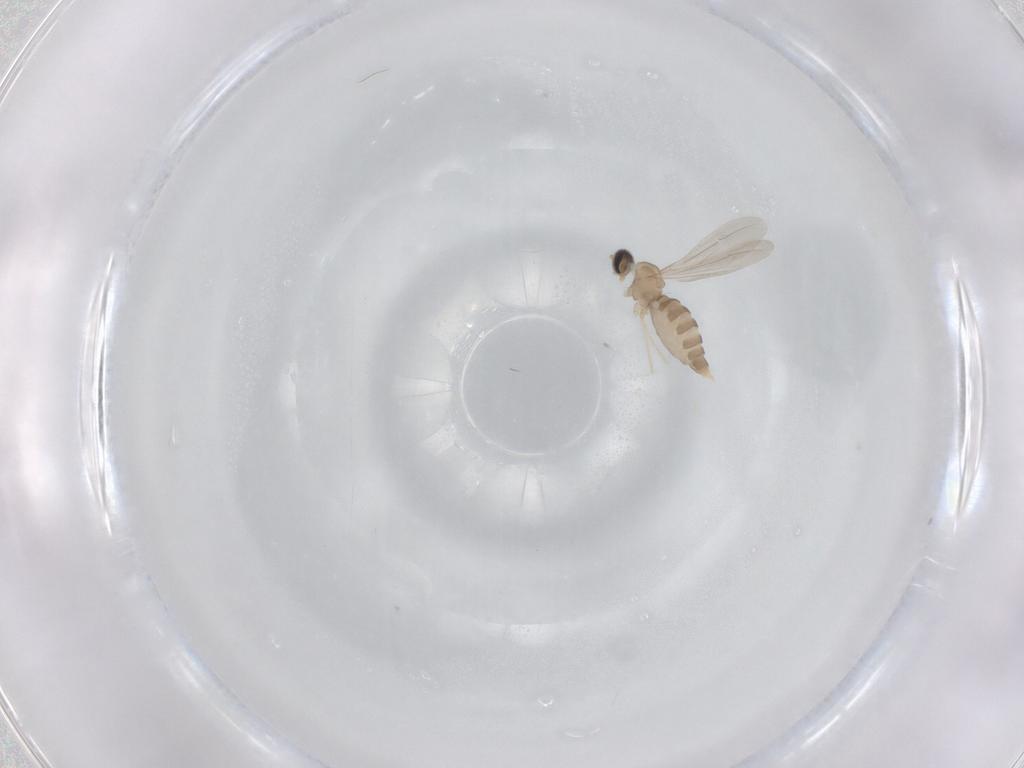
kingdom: Animalia
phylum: Arthropoda
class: Insecta
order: Diptera
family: Cecidomyiidae
